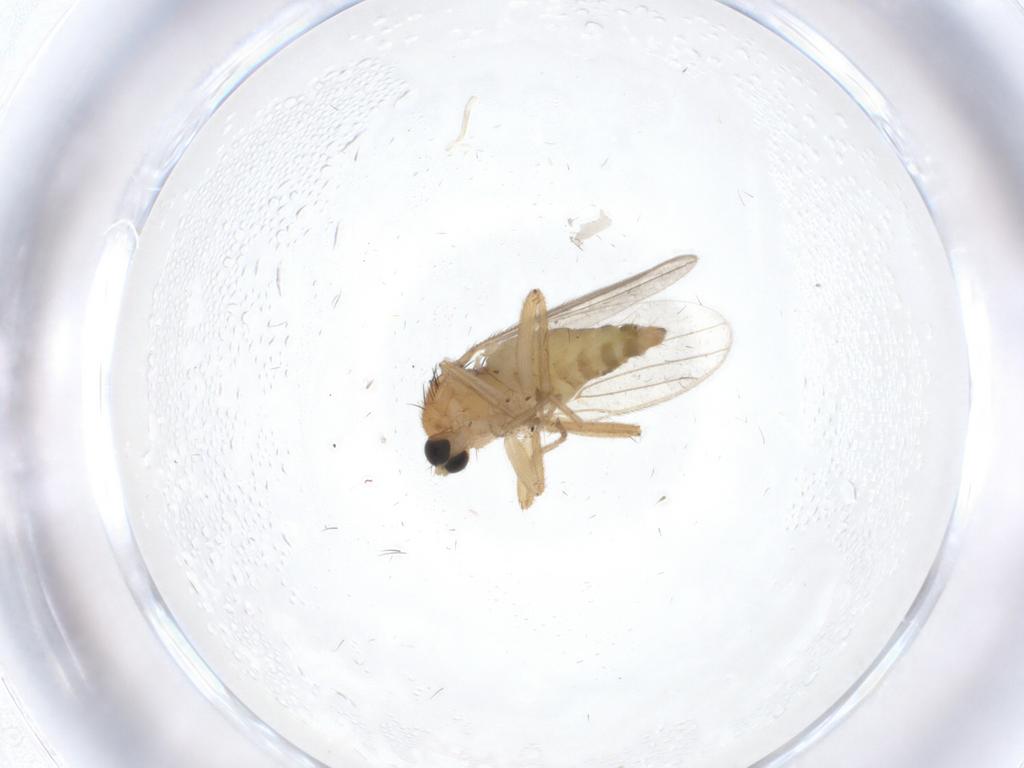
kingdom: Animalia
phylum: Arthropoda
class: Insecta
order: Diptera
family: Hybotidae
